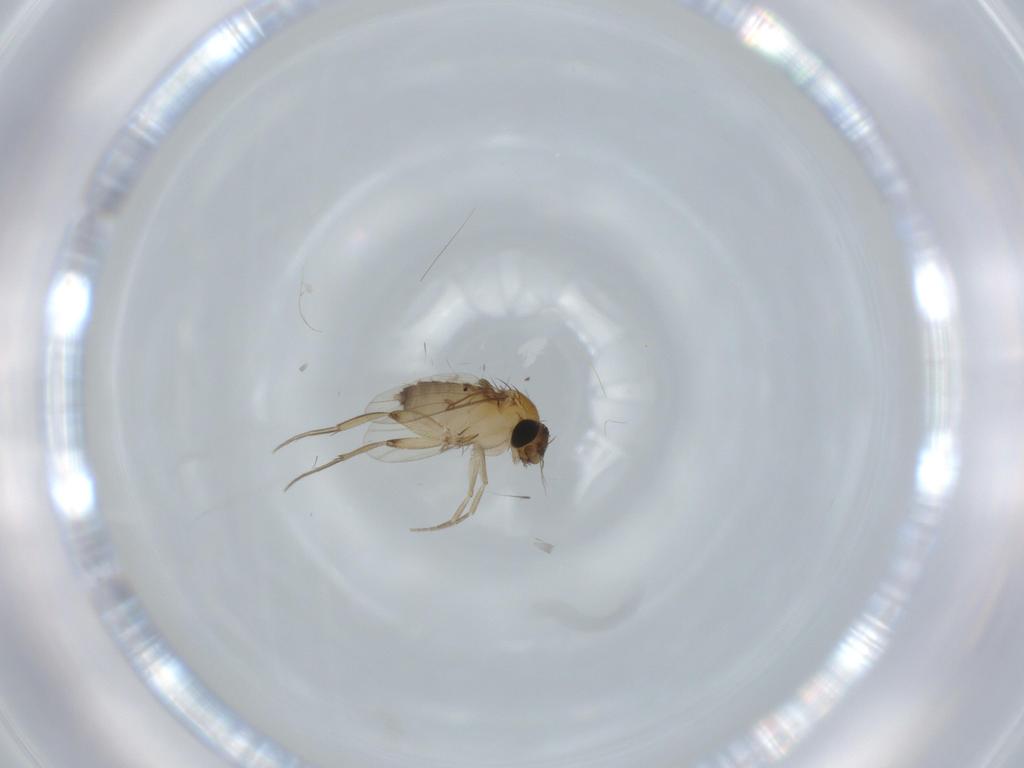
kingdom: Animalia
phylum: Arthropoda
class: Insecta
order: Diptera
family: Phoridae
